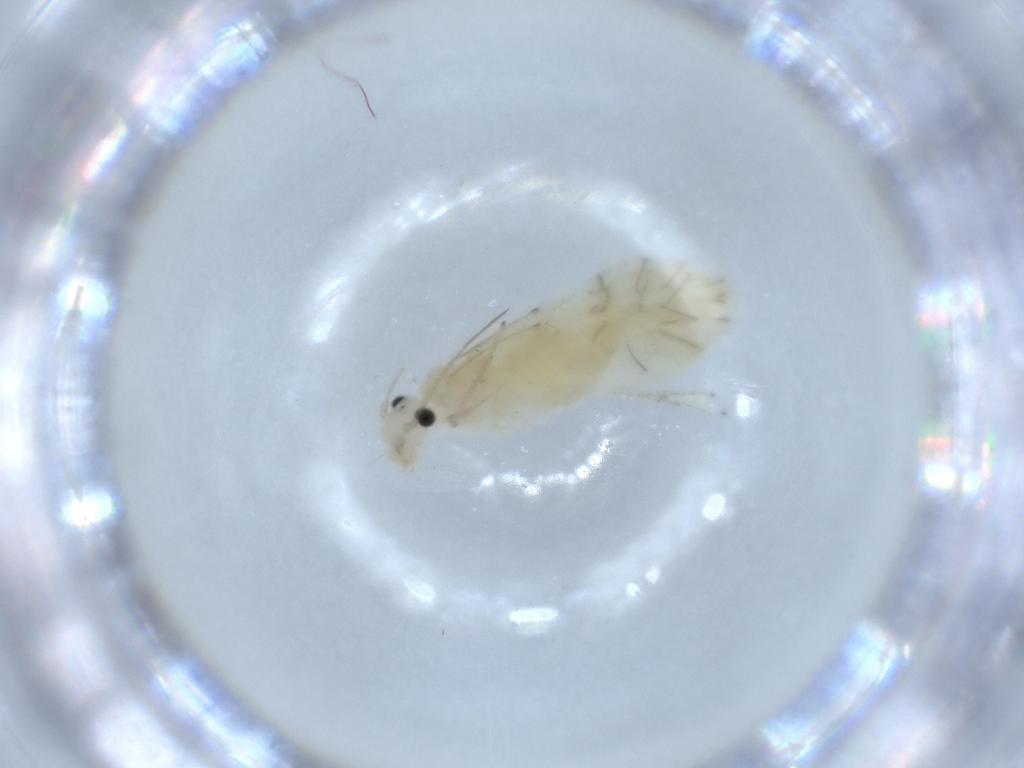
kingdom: Animalia
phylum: Arthropoda
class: Insecta
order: Psocodea
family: Caeciliusidae
